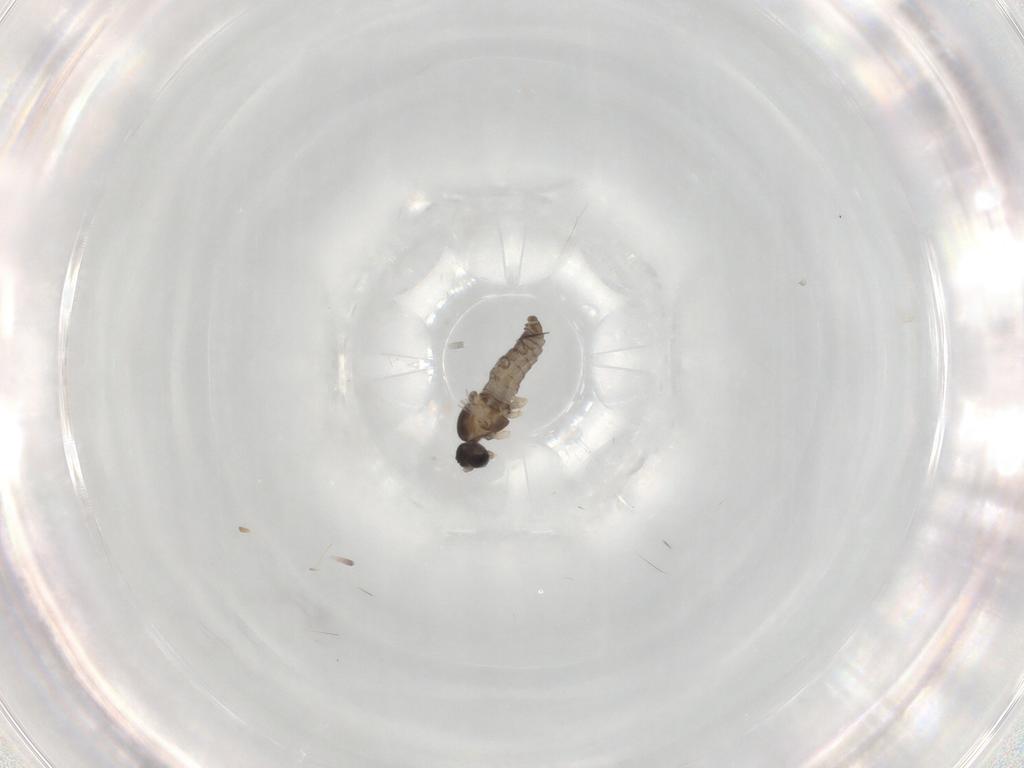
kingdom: Animalia
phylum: Arthropoda
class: Insecta
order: Diptera
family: Cecidomyiidae
